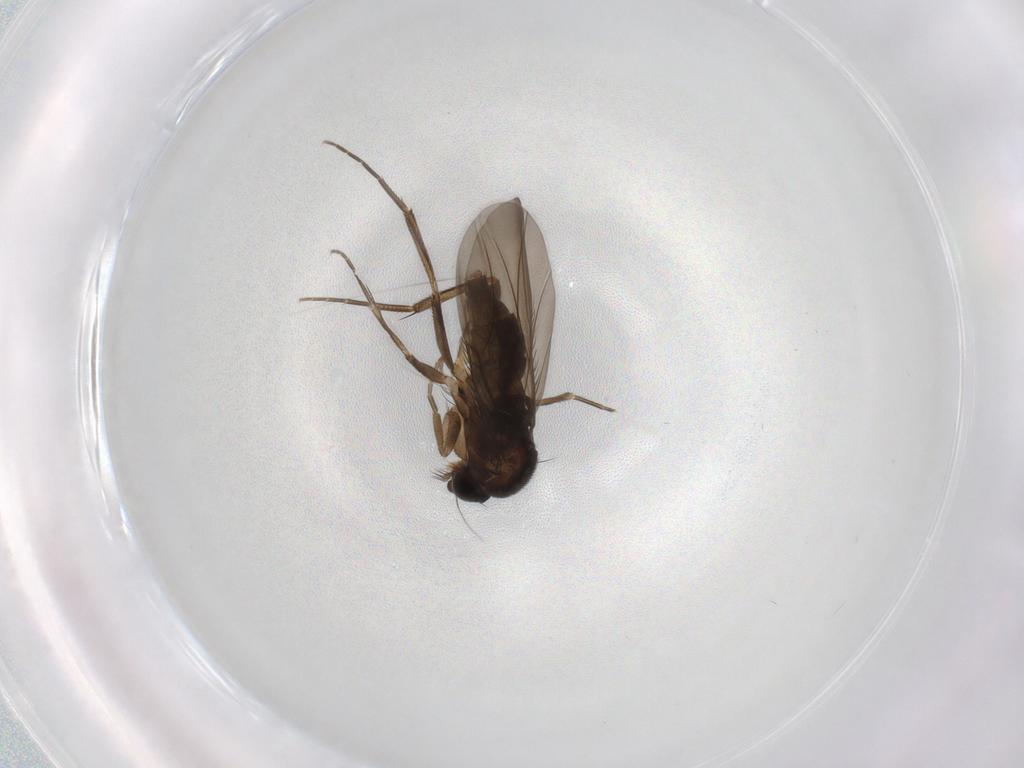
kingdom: Animalia
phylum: Arthropoda
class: Insecta
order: Diptera
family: Phoridae
